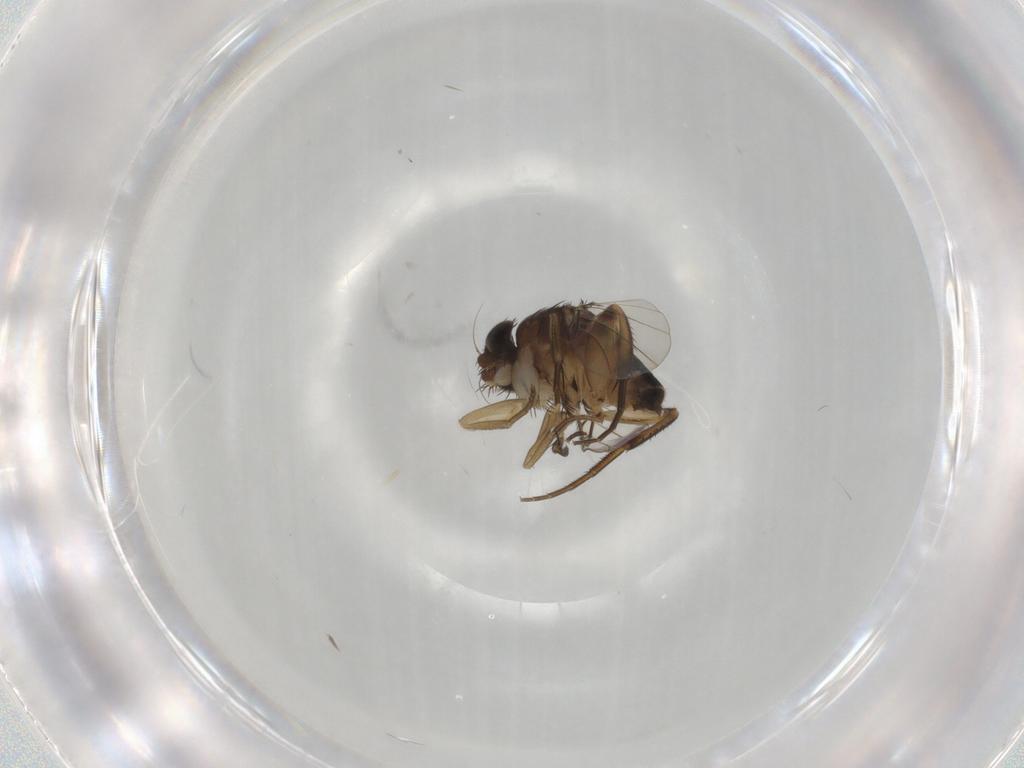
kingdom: Animalia
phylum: Arthropoda
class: Insecta
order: Diptera
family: Phoridae
